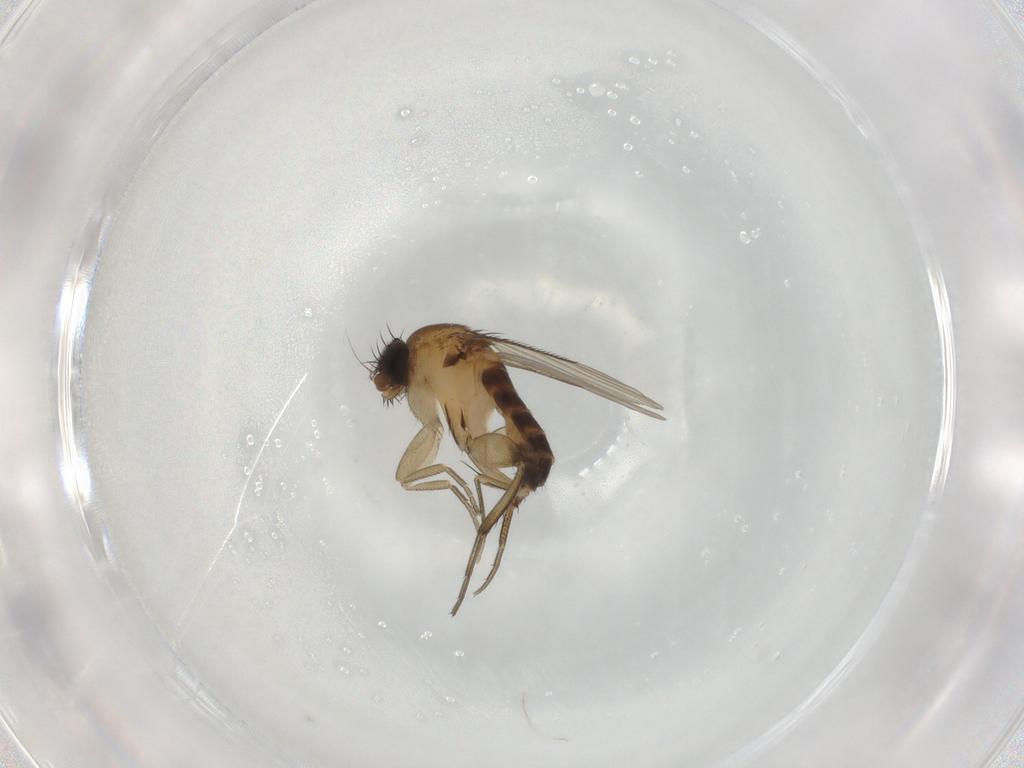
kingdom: Animalia
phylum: Arthropoda
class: Insecta
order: Diptera
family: Phoridae
